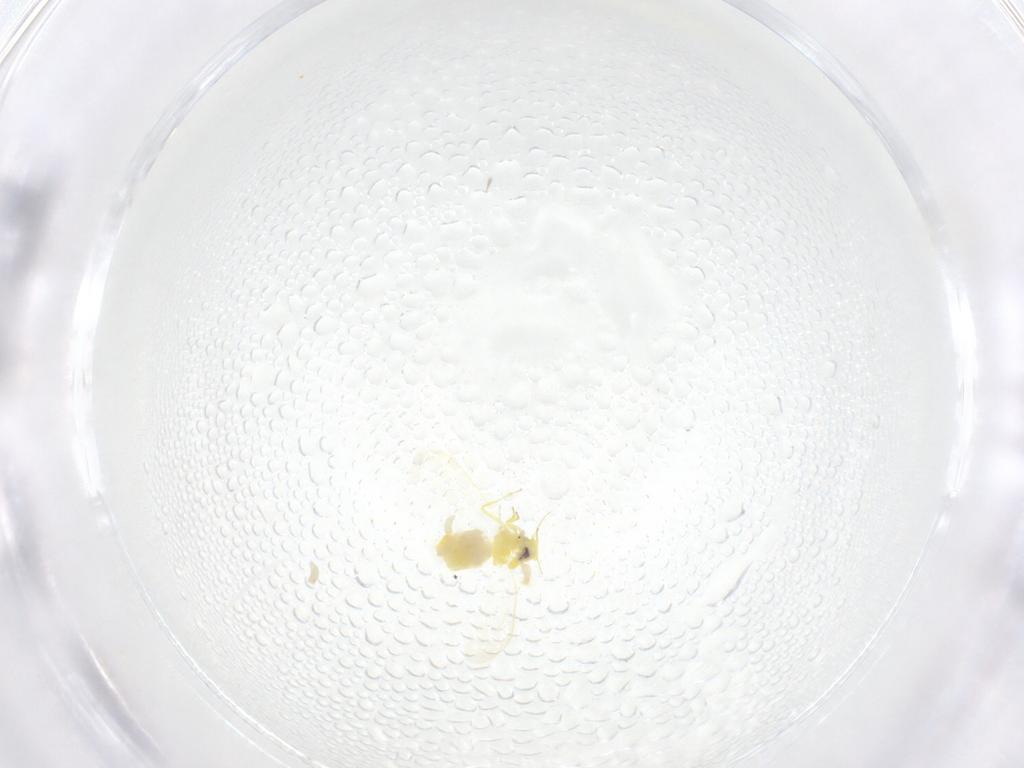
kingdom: Animalia
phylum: Arthropoda
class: Insecta
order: Hemiptera
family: Aleyrodidae
